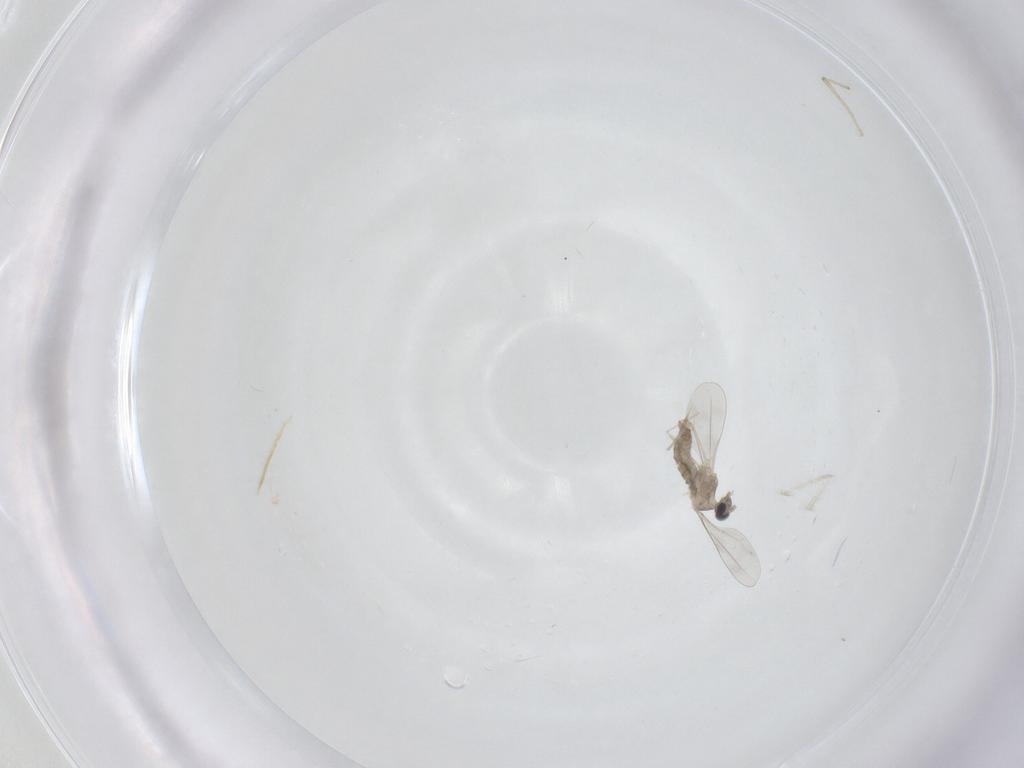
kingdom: Animalia
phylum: Arthropoda
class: Insecta
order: Diptera
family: Cecidomyiidae
